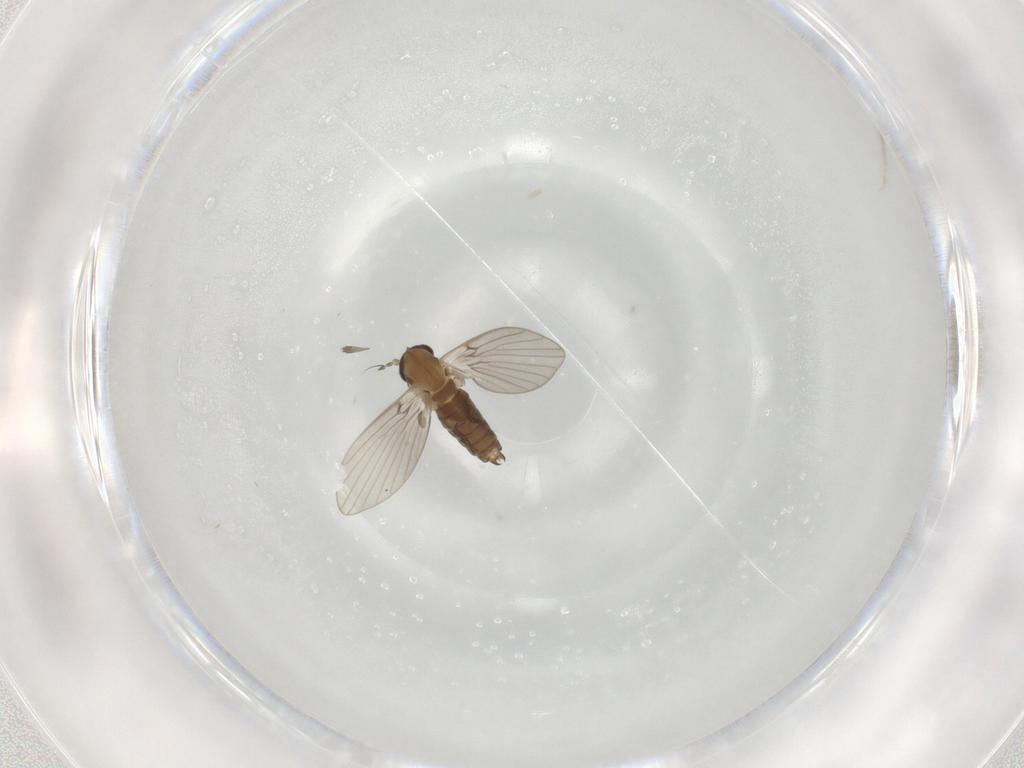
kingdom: Animalia
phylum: Arthropoda
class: Insecta
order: Diptera
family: Psychodidae
